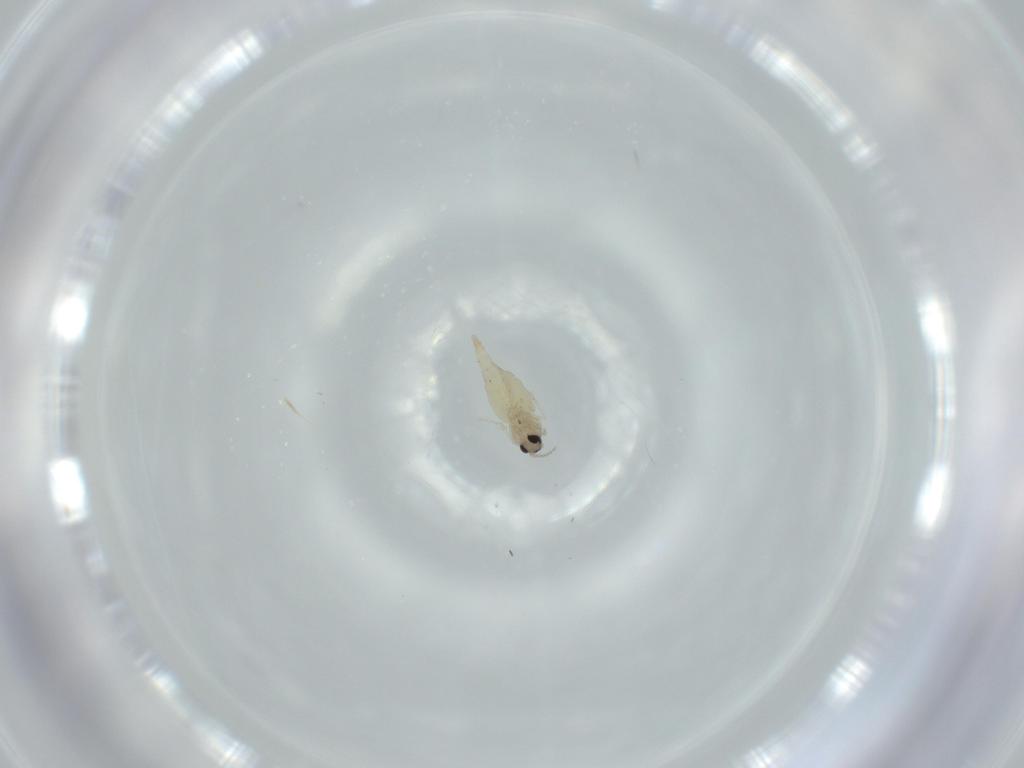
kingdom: Animalia
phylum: Arthropoda
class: Insecta
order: Diptera
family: Cecidomyiidae
